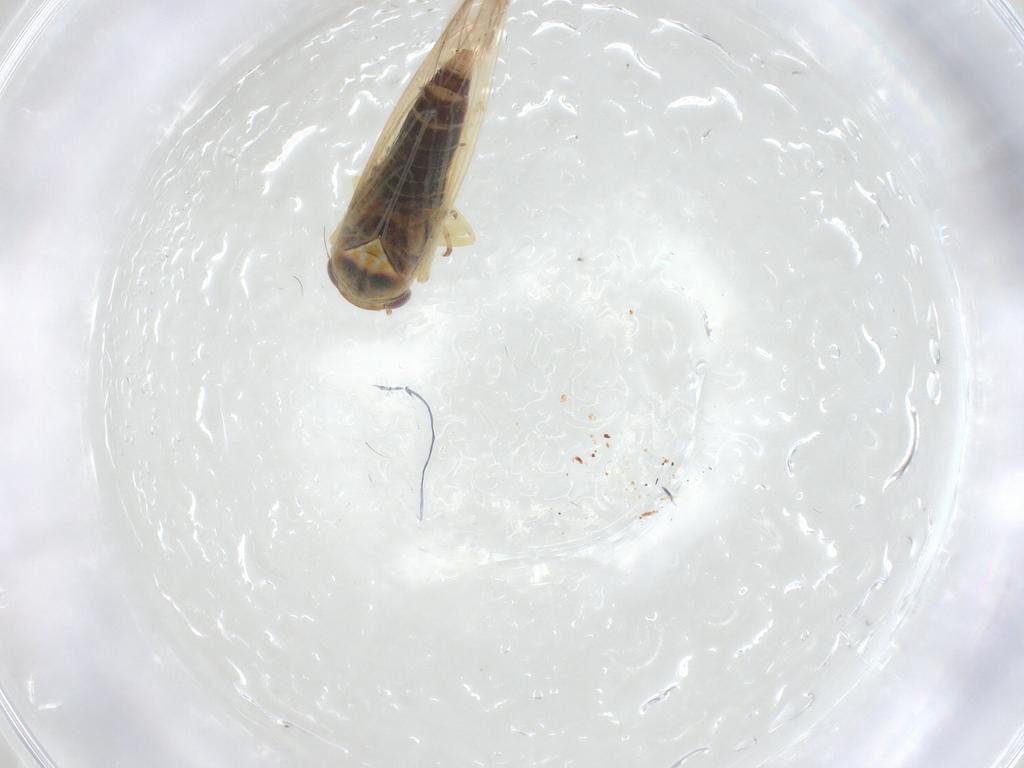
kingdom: Animalia
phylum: Arthropoda
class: Insecta
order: Hemiptera
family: Cicadellidae
